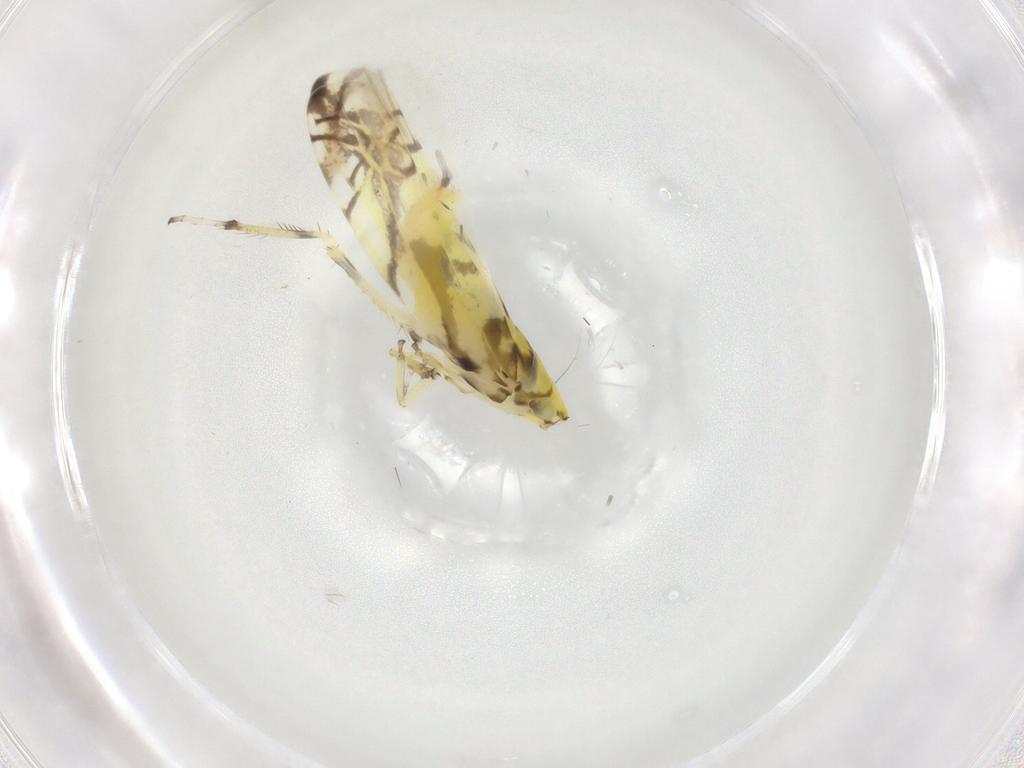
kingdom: Animalia
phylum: Arthropoda
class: Insecta
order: Hemiptera
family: Cicadellidae
